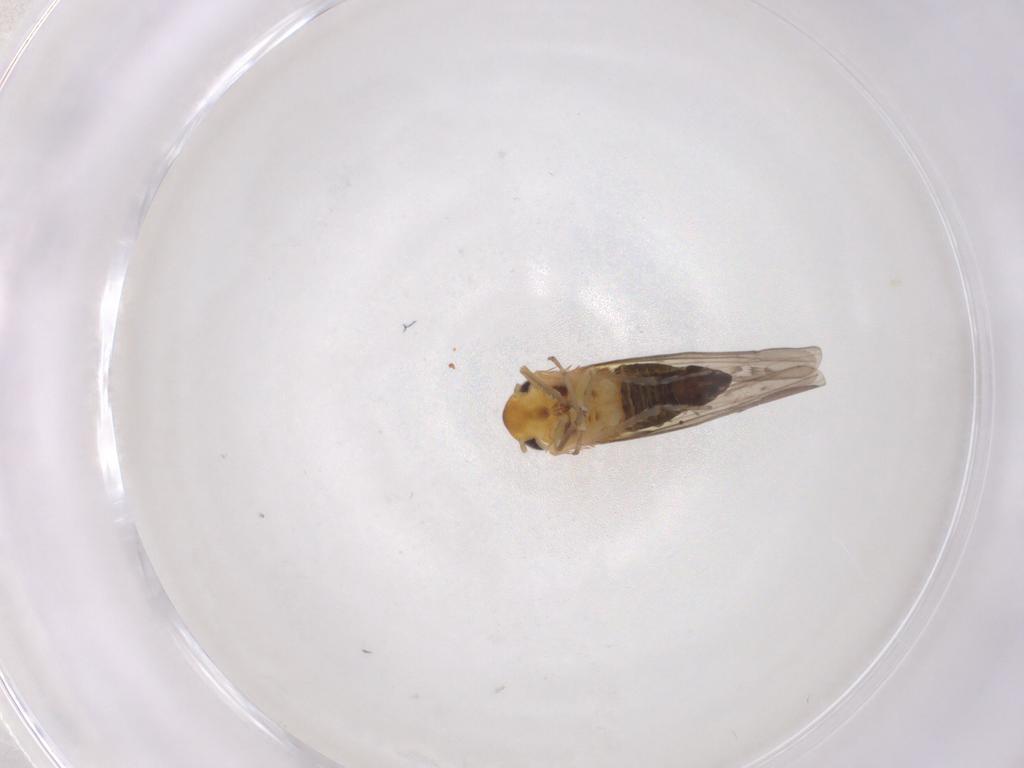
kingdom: Animalia
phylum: Arthropoda
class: Insecta
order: Hemiptera
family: Cicadellidae
